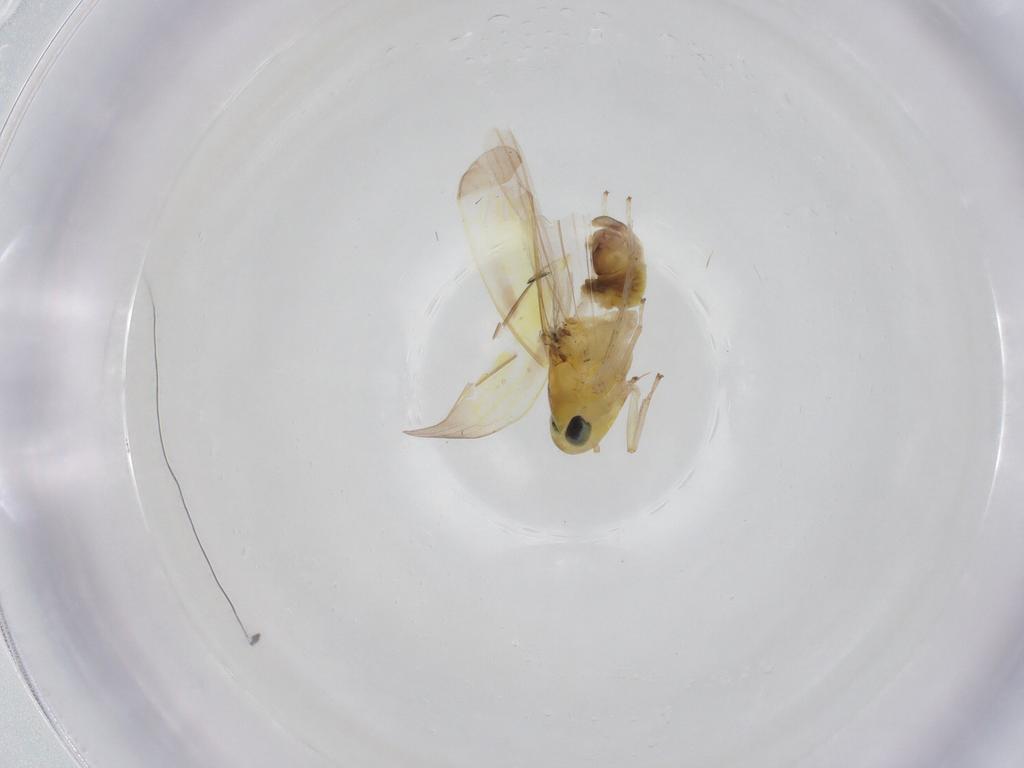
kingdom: Animalia
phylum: Arthropoda
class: Insecta
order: Hemiptera
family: Cicadellidae
